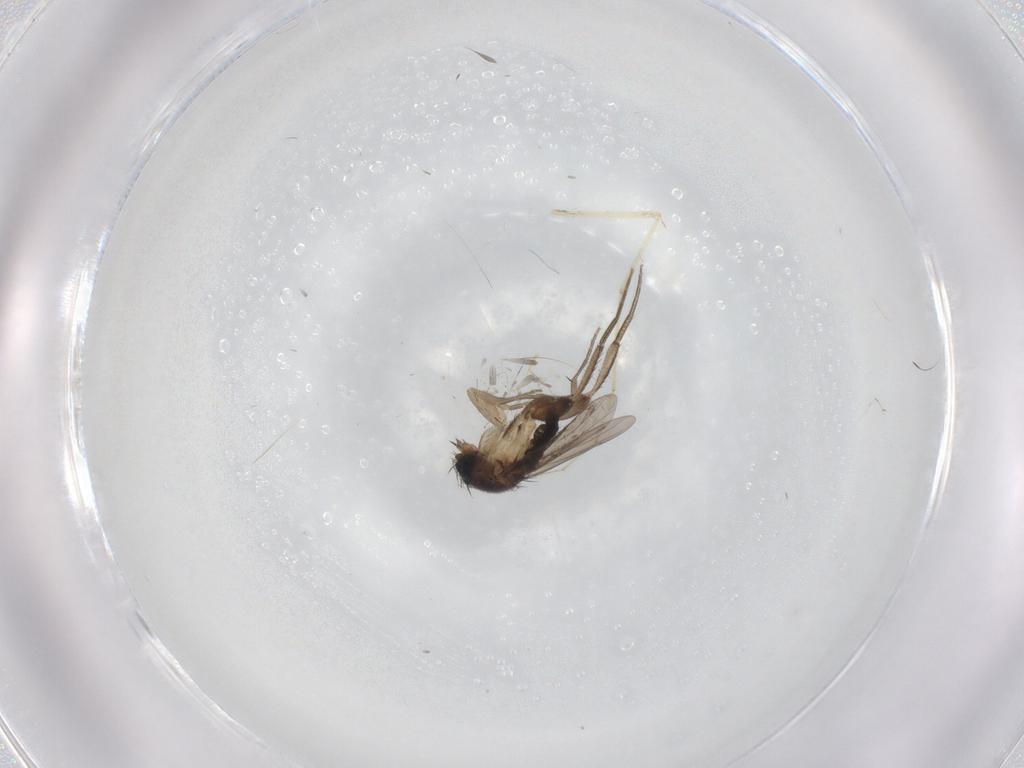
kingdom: Animalia
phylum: Arthropoda
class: Insecta
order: Diptera
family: Phoridae
